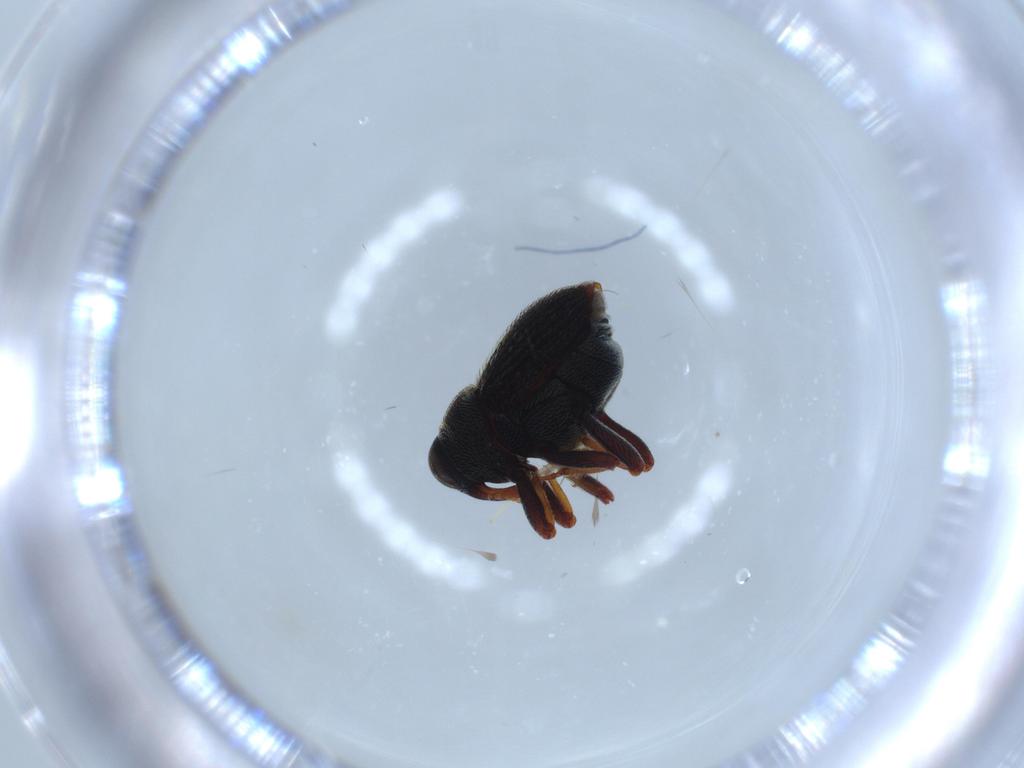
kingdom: Animalia
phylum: Arthropoda
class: Insecta
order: Coleoptera
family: Curculionidae
